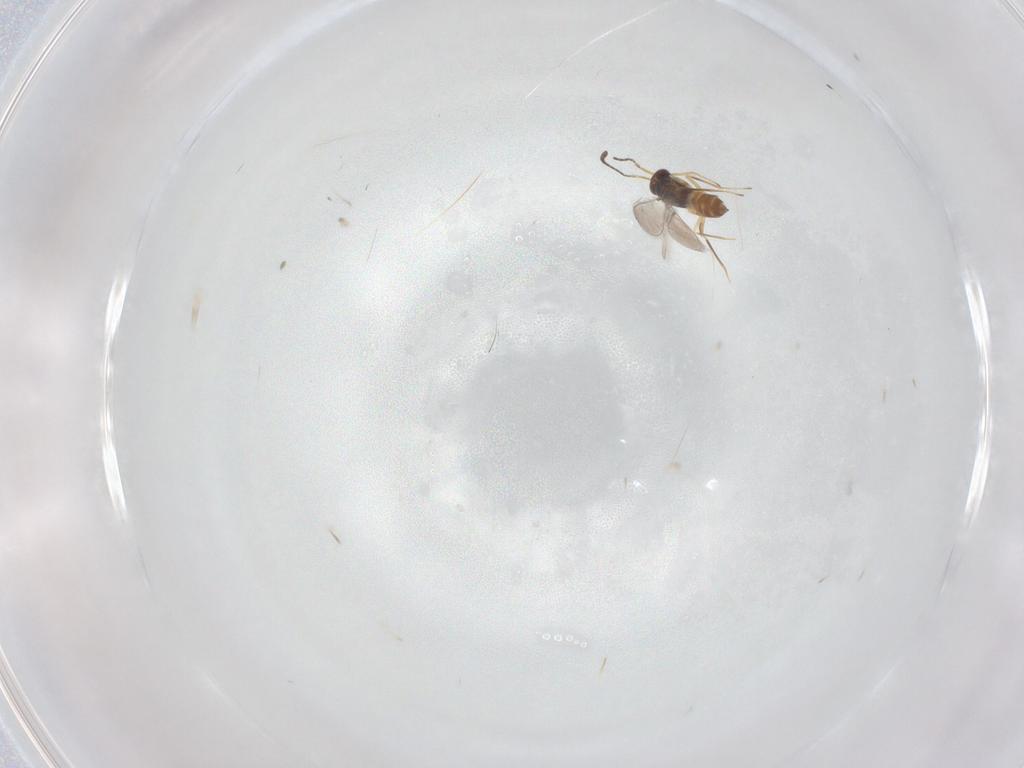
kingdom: Animalia
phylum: Arthropoda
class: Insecta
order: Hymenoptera
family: Mymaridae
